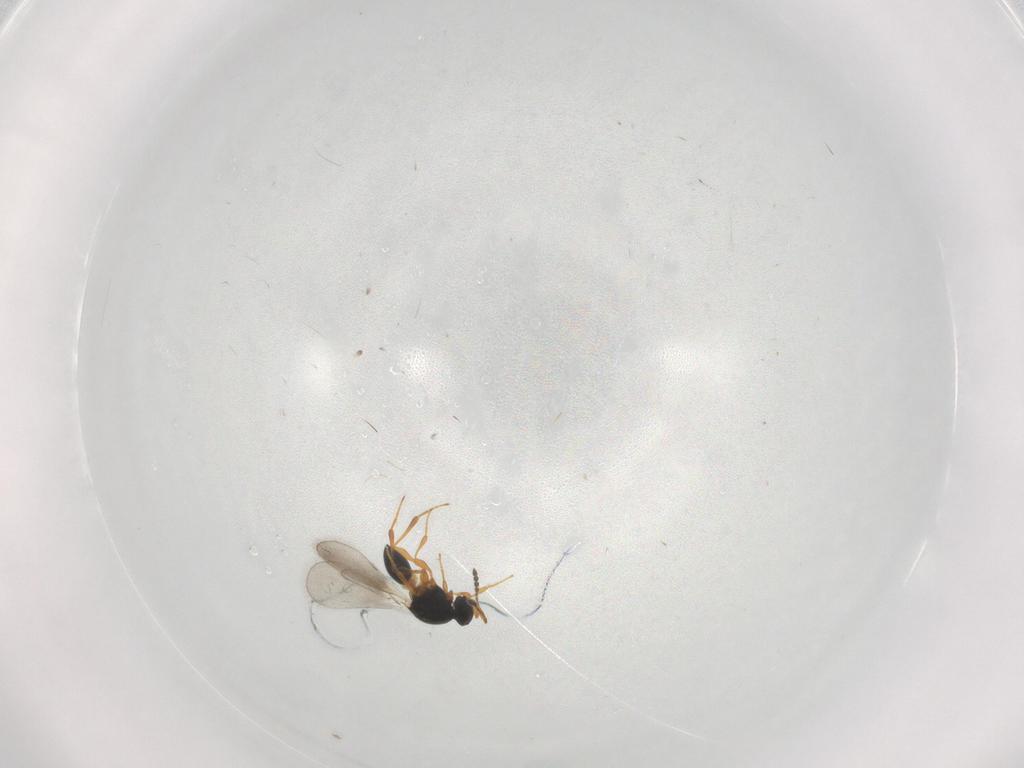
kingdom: Animalia
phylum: Arthropoda
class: Insecta
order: Hymenoptera
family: Platygastridae
